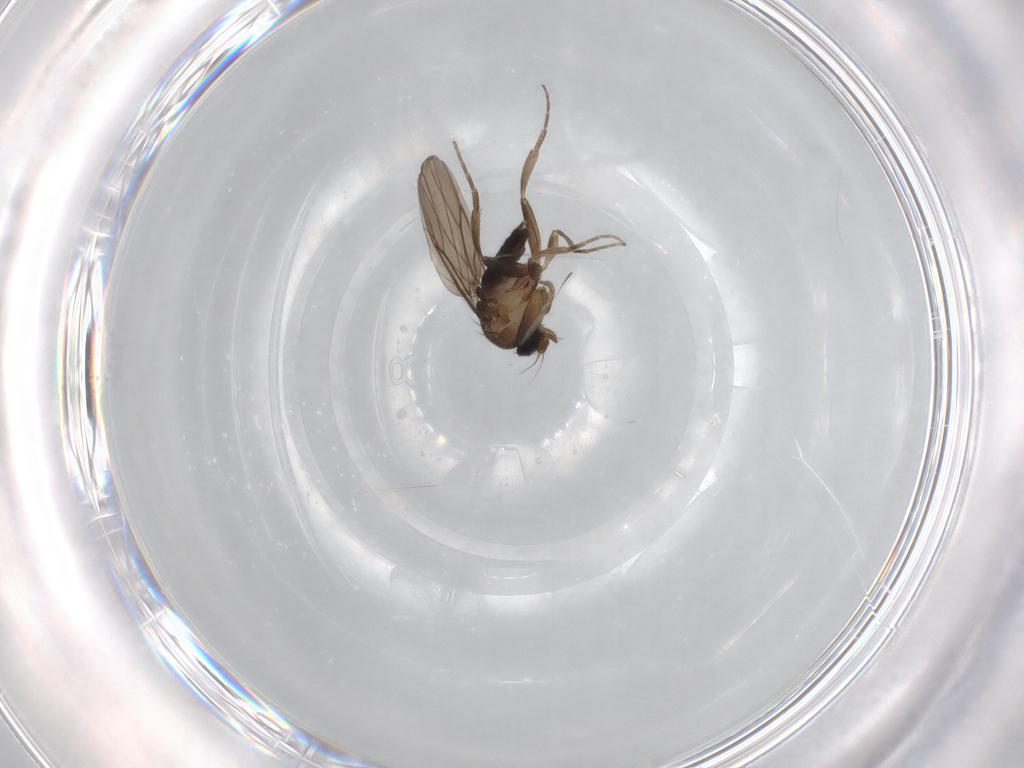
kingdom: Animalia
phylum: Arthropoda
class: Insecta
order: Diptera
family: Phoridae
